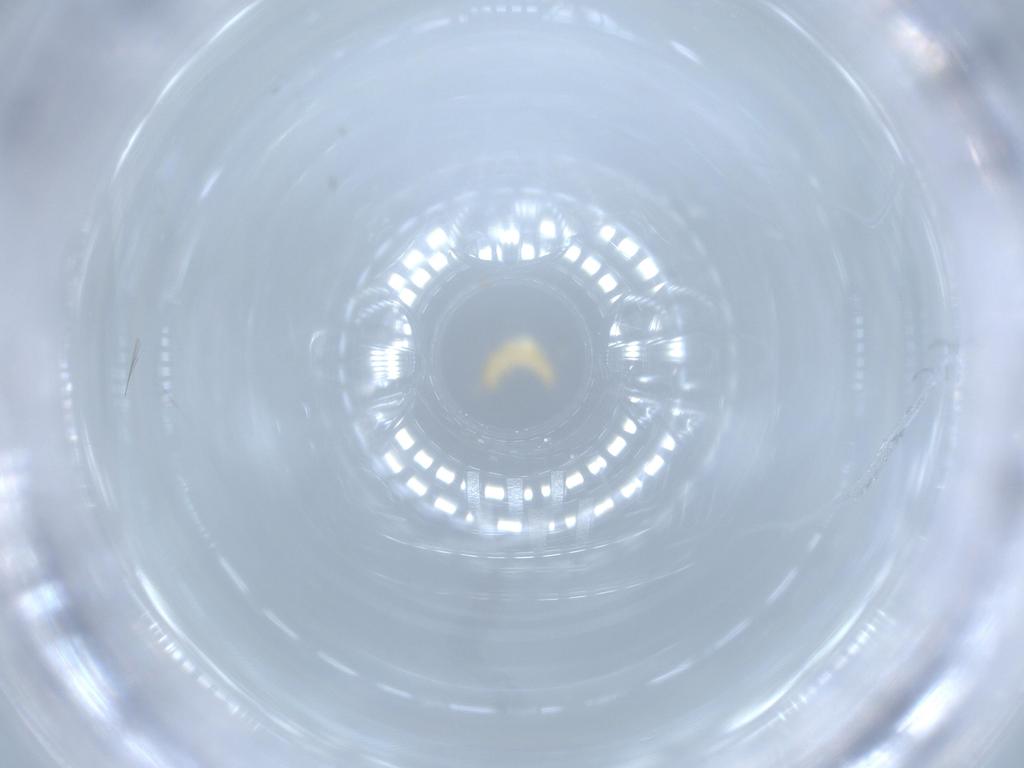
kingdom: Animalia
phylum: Arthropoda
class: Insecta
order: Coleoptera
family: Cantharidae
